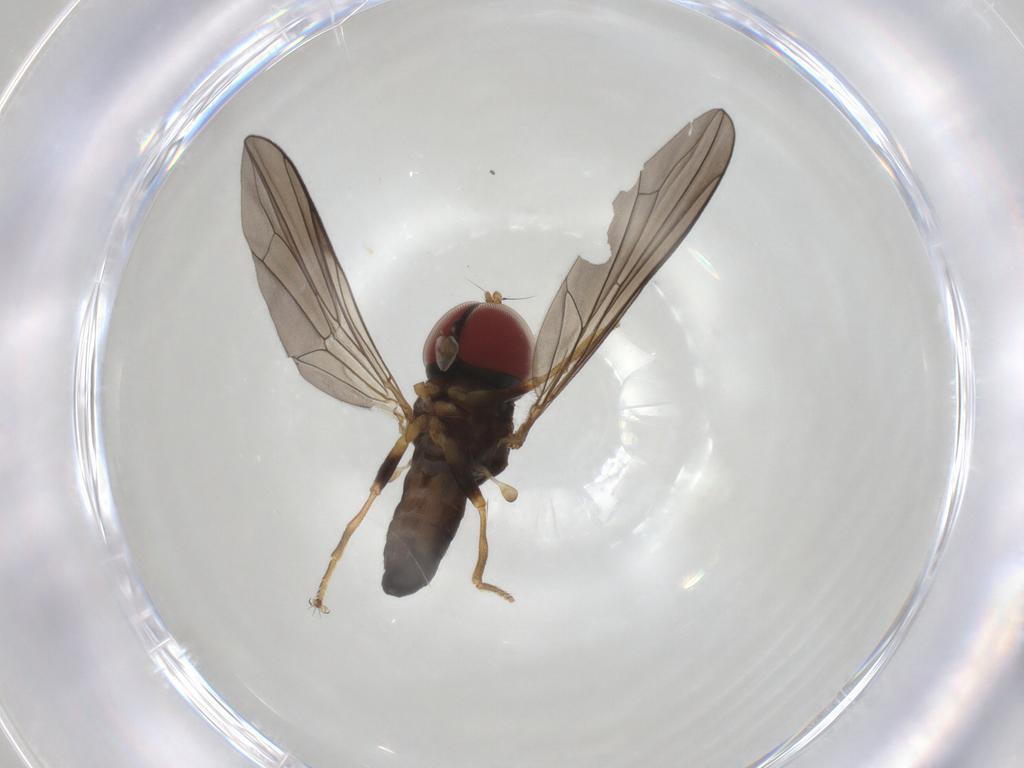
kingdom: Animalia
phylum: Arthropoda
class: Insecta
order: Diptera
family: Pipunculidae
